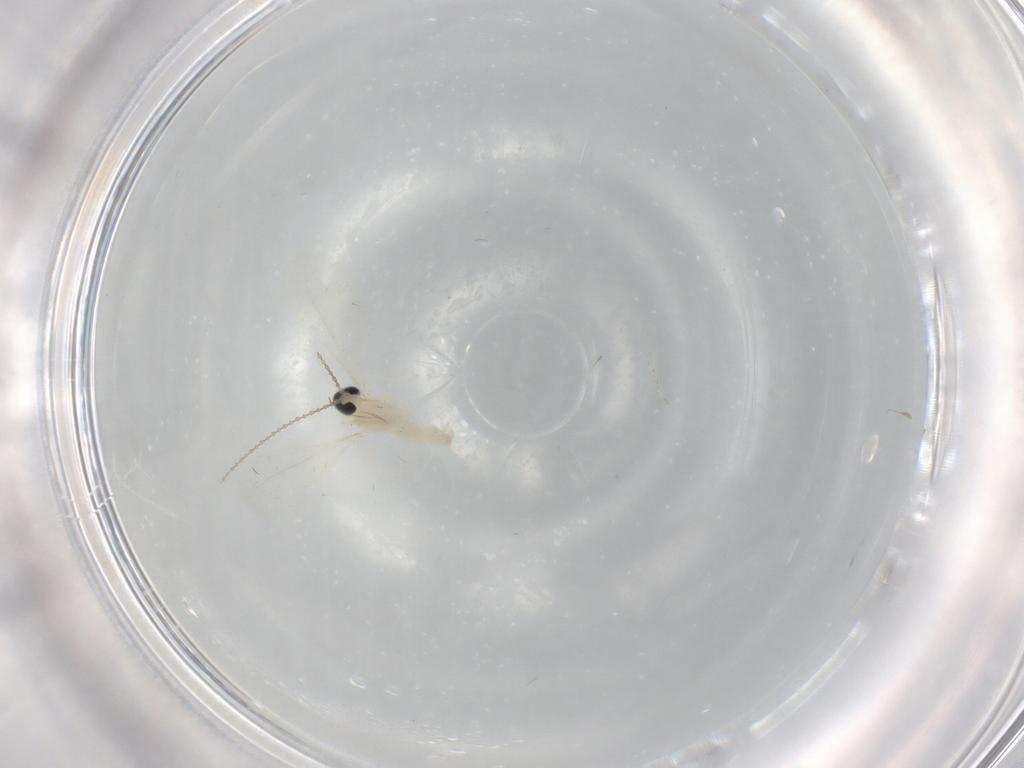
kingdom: Animalia
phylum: Arthropoda
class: Insecta
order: Diptera
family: Cecidomyiidae
